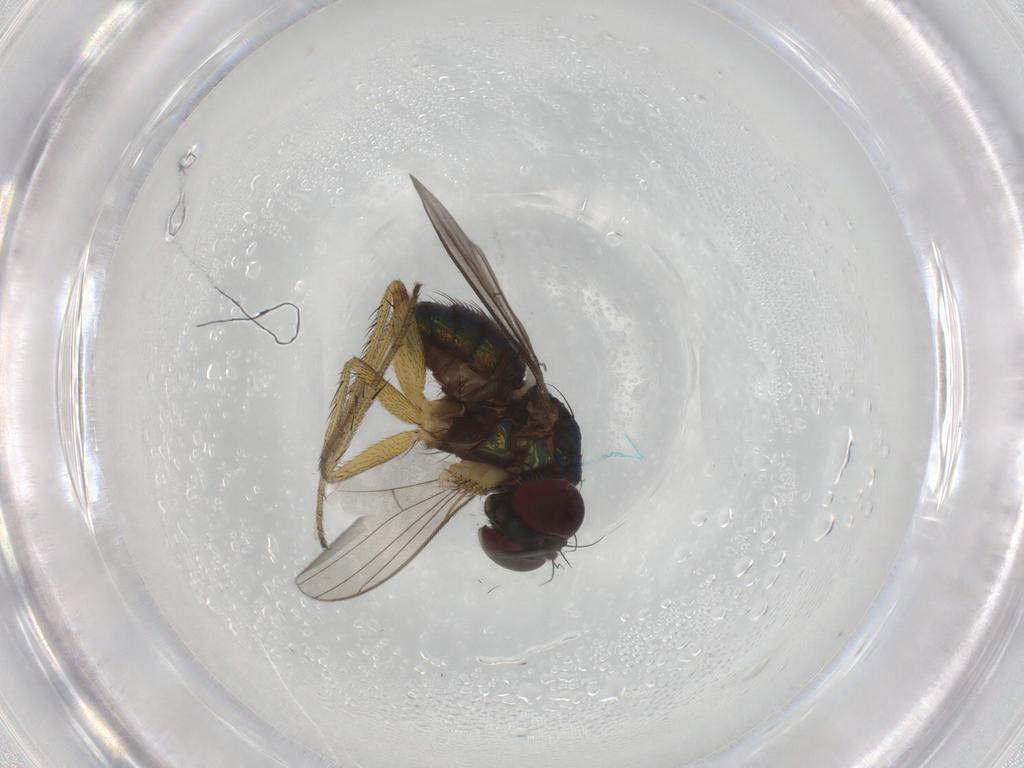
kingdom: Animalia
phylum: Arthropoda
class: Insecta
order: Diptera
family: Dolichopodidae
